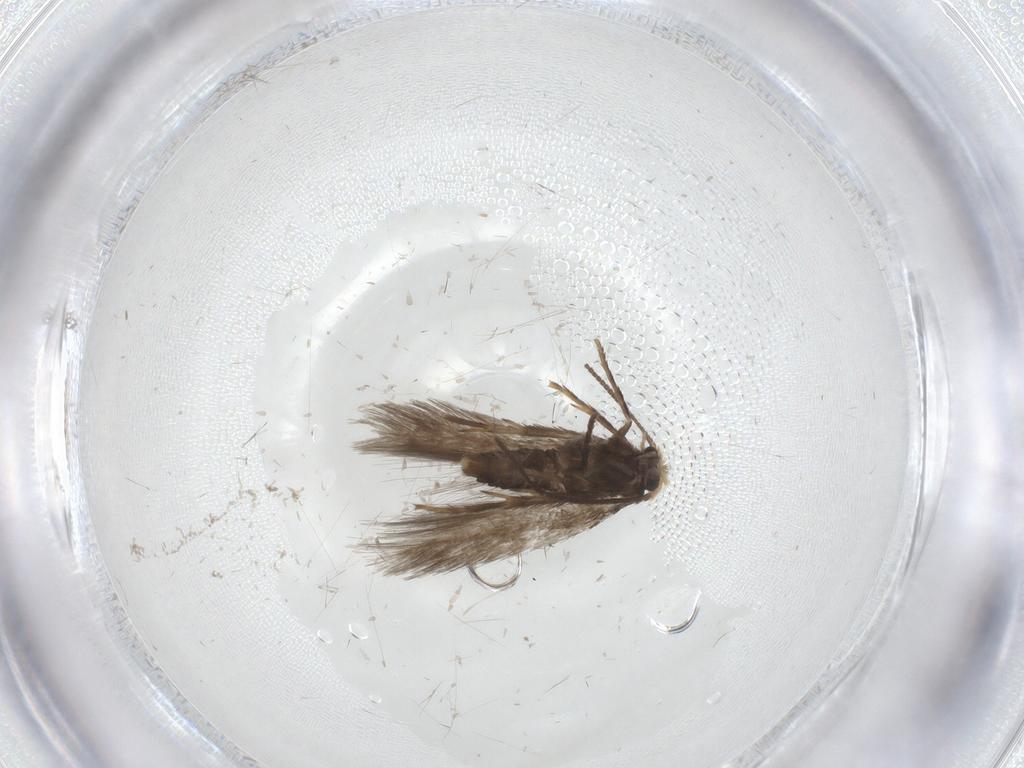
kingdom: Animalia
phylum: Arthropoda
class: Insecta
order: Lepidoptera
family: Nepticulidae
